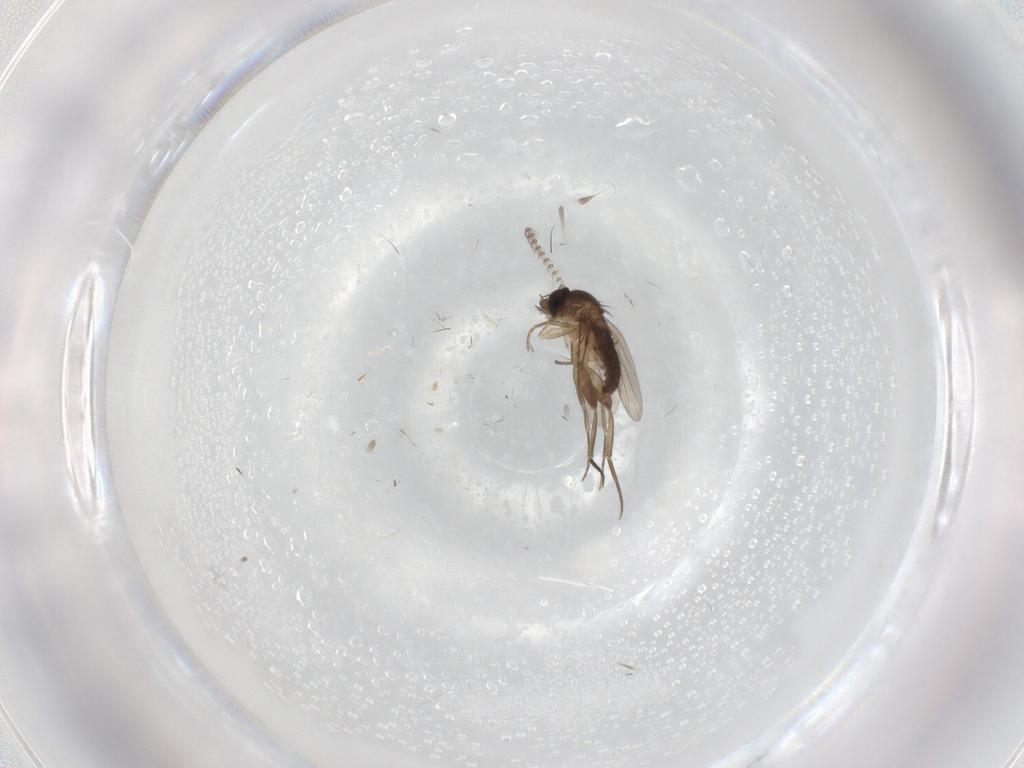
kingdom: Animalia
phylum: Arthropoda
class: Insecta
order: Diptera
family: Phoridae
